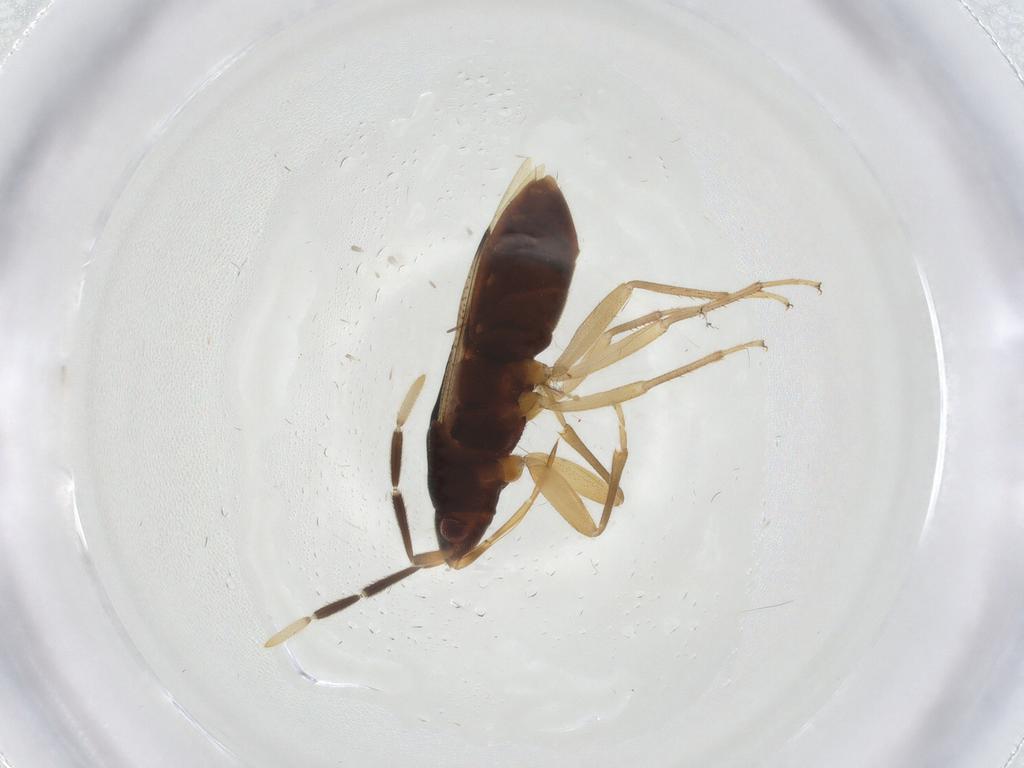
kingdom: Animalia
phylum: Arthropoda
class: Insecta
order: Hemiptera
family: Rhyparochromidae
